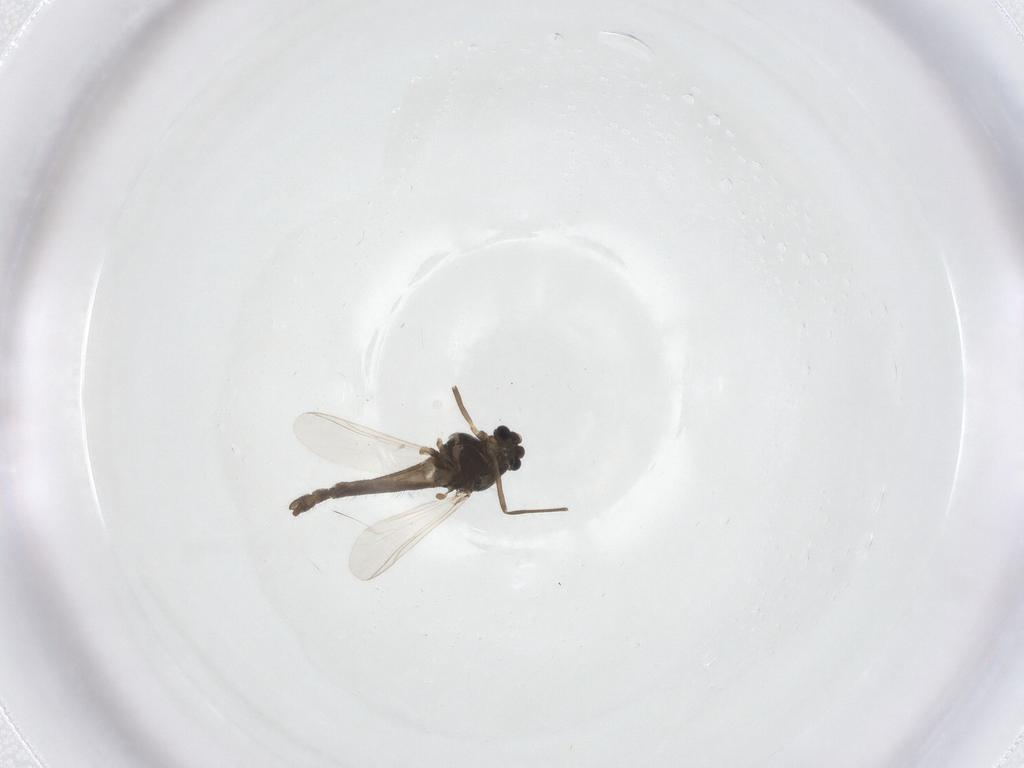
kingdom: Animalia
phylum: Arthropoda
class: Insecta
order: Diptera
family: Chironomidae
